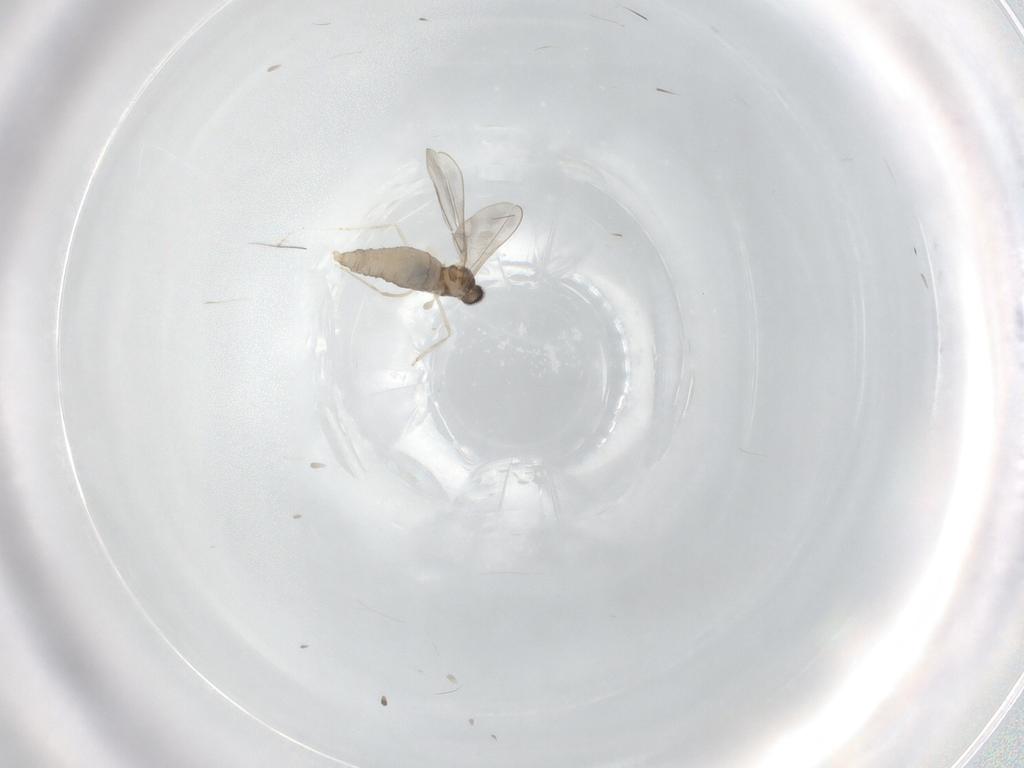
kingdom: Animalia
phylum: Arthropoda
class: Insecta
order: Diptera
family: Cecidomyiidae
